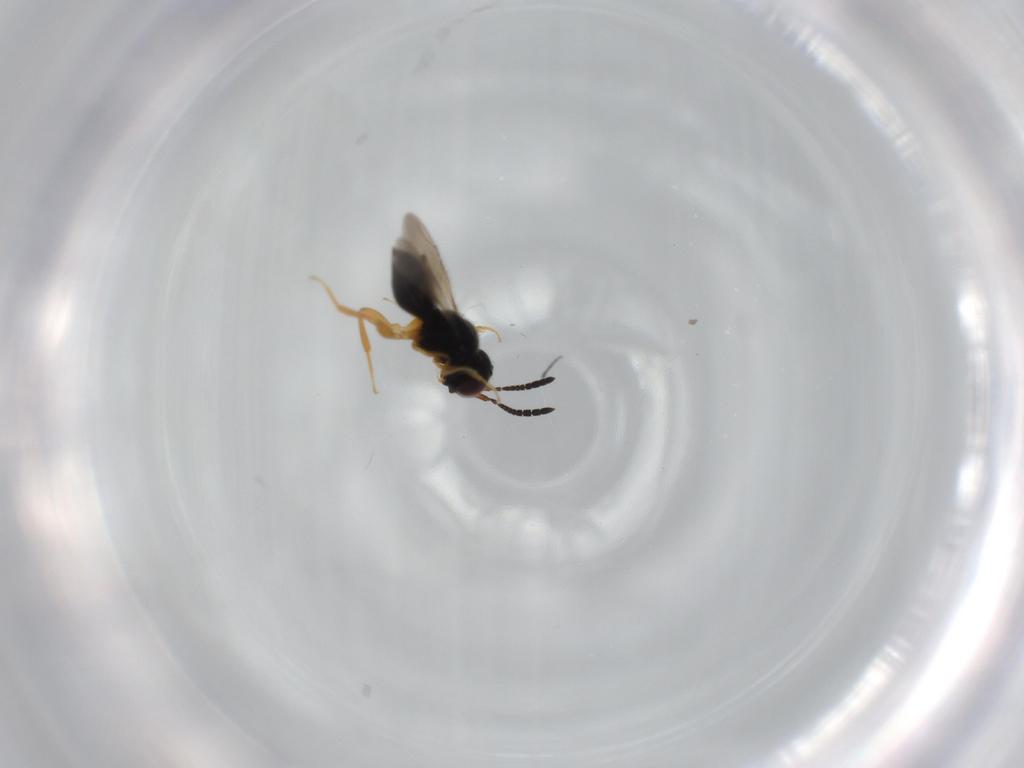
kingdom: Animalia
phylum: Arthropoda
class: Insecta
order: Hymenoptera
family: Ceraphronidae
